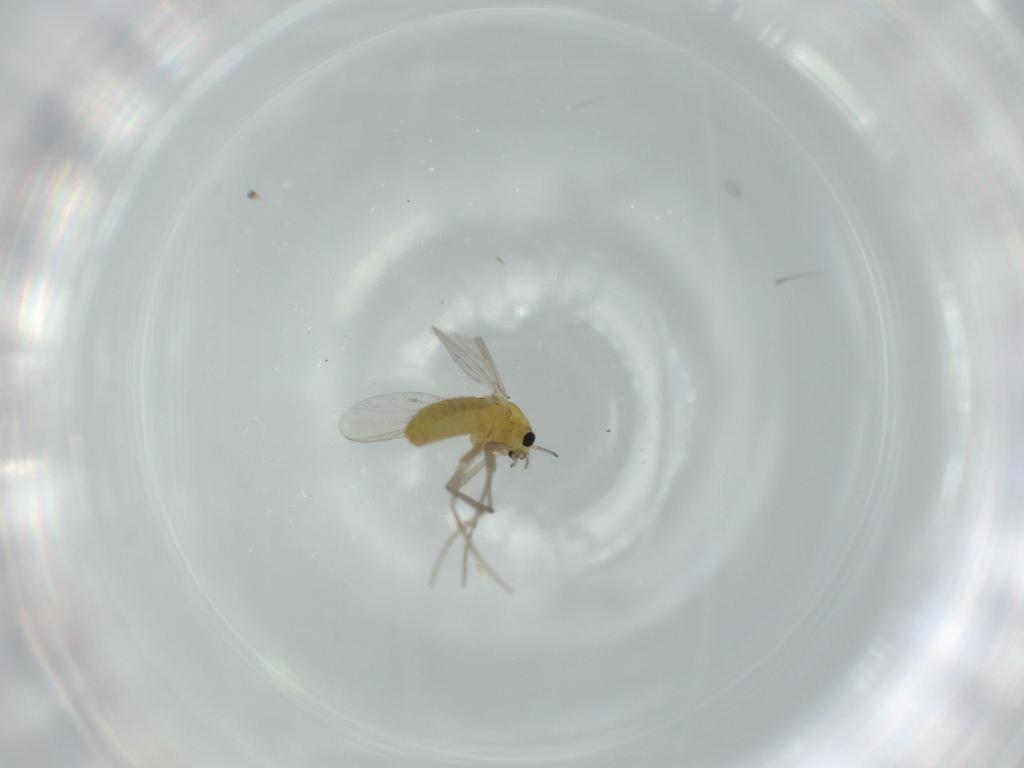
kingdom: Animalia
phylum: Arthropoda
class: Insecta
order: Diptera
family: Chironomidae
